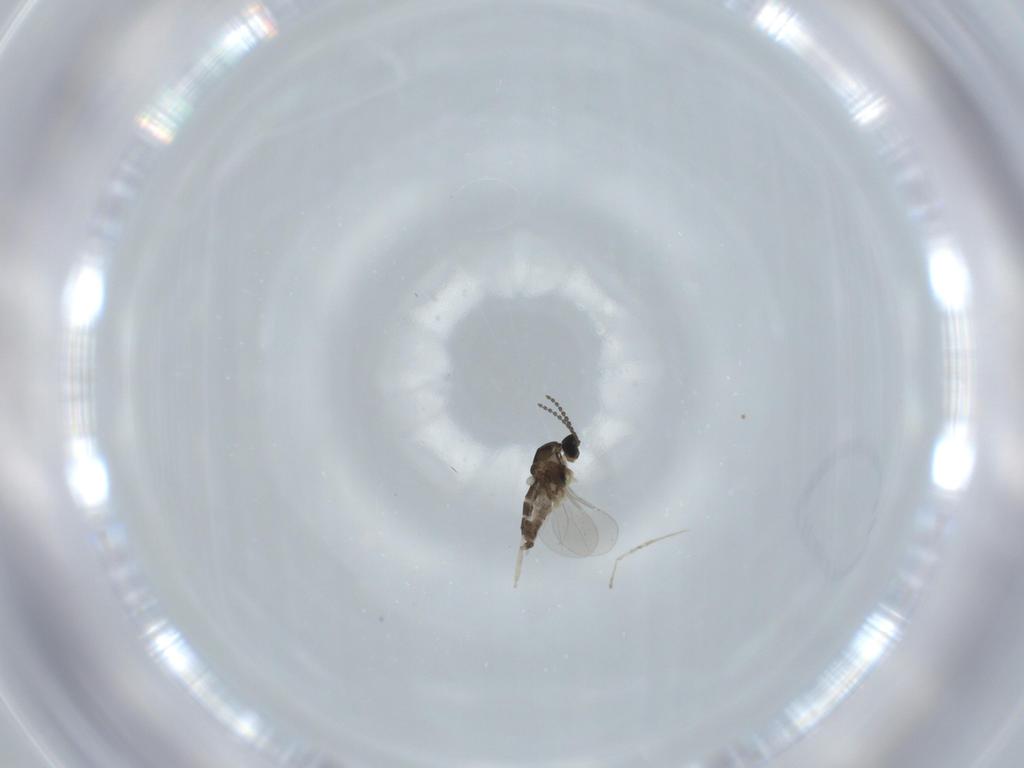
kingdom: Animalia
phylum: Arthropoda
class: Insecta
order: Diptera
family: Cecidomyiidae
